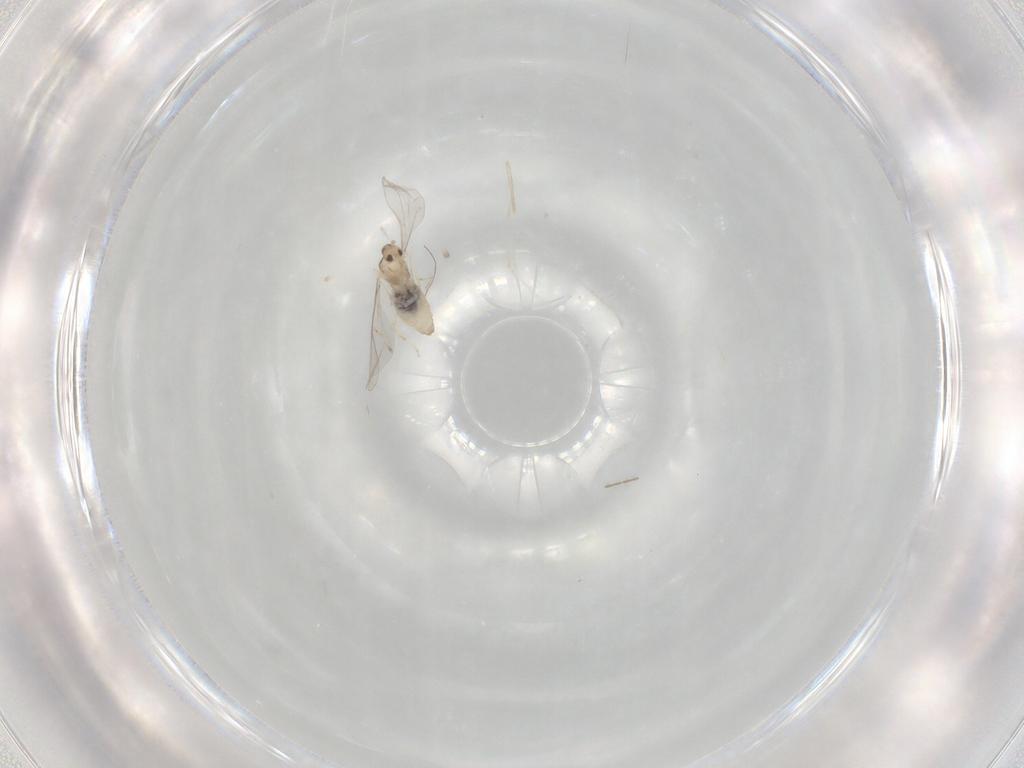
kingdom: Animalia
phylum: Arthropoda
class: Insecta
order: Diptera
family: Cecidomyiidae
